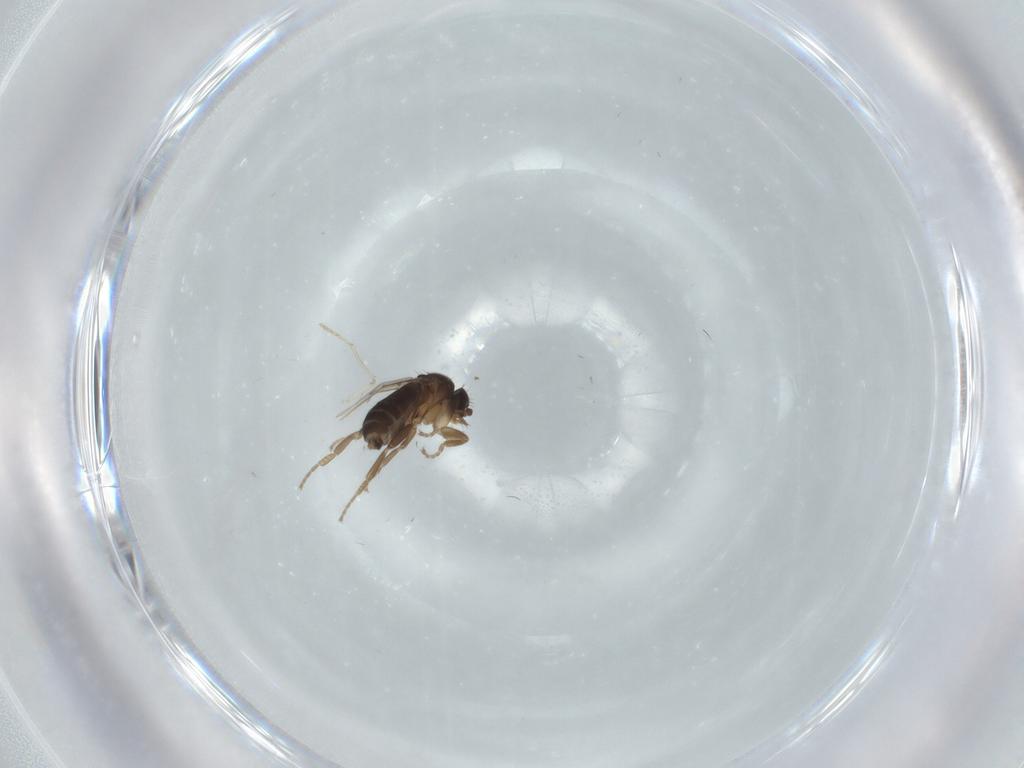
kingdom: Animalia
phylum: Arthropoda
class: Insecta
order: Diptera
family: Phoridae
